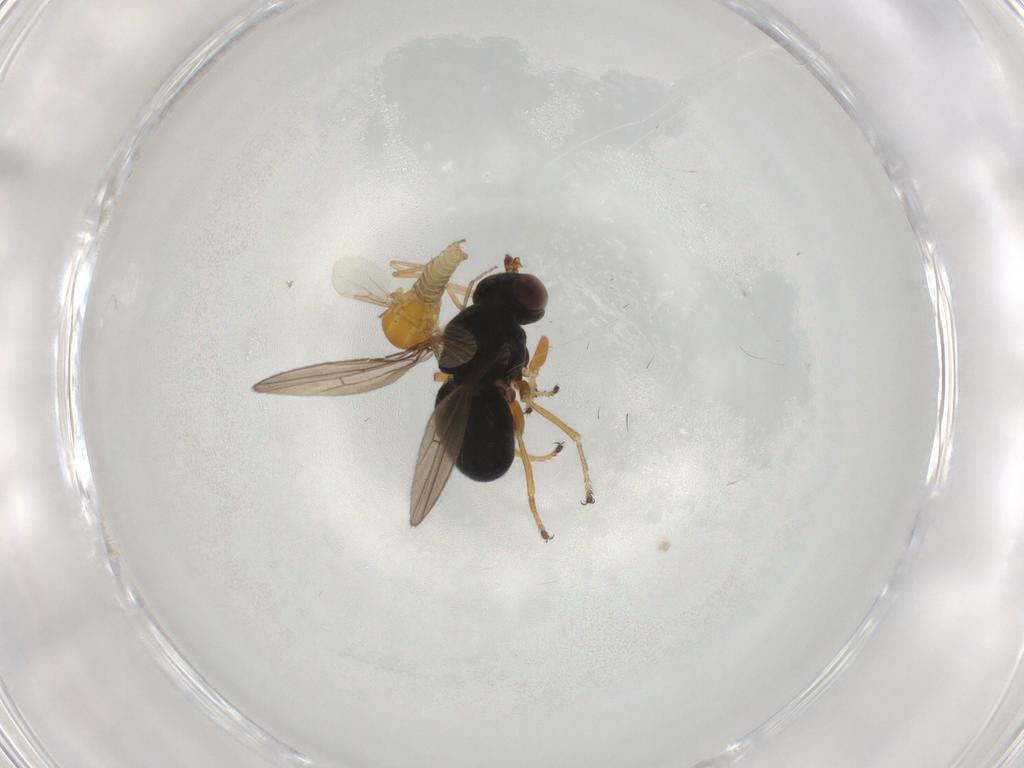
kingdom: Animalia
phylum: Arthropoda
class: Insecta
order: Diptera
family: Ephydridae
